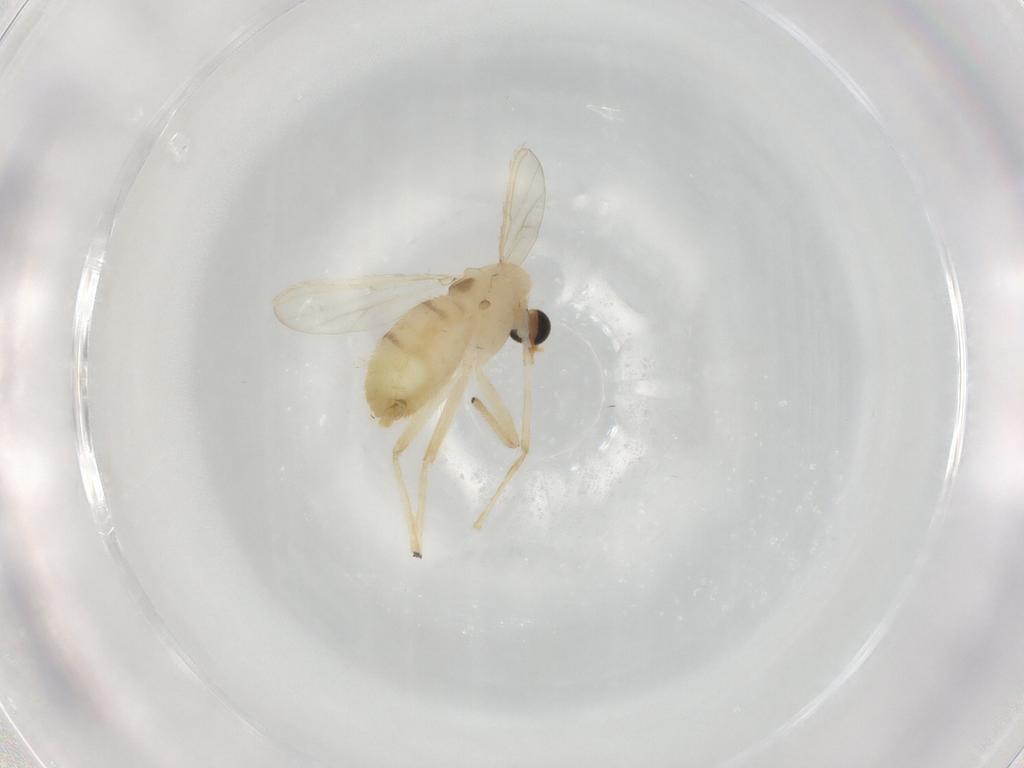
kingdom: Animalia
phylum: Arthropoda
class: Insecta
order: Diptera
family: Chironomidae
